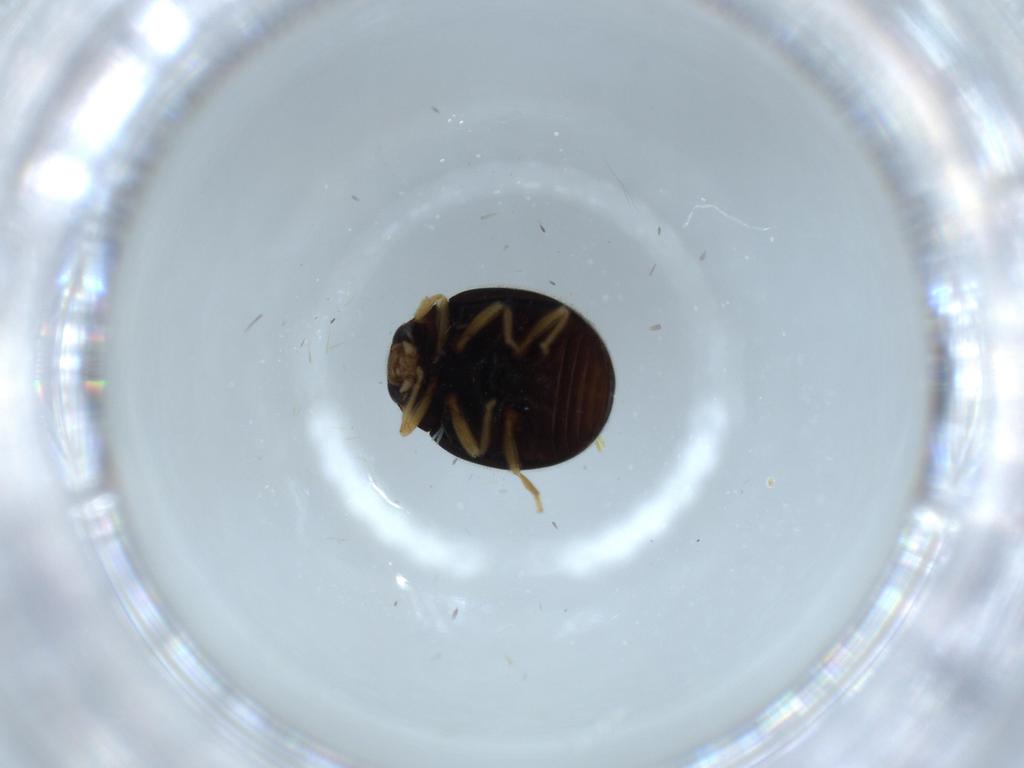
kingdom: Animalia
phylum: Arthropoda
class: Insecta
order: Coleoptera
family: Coccinellidae
